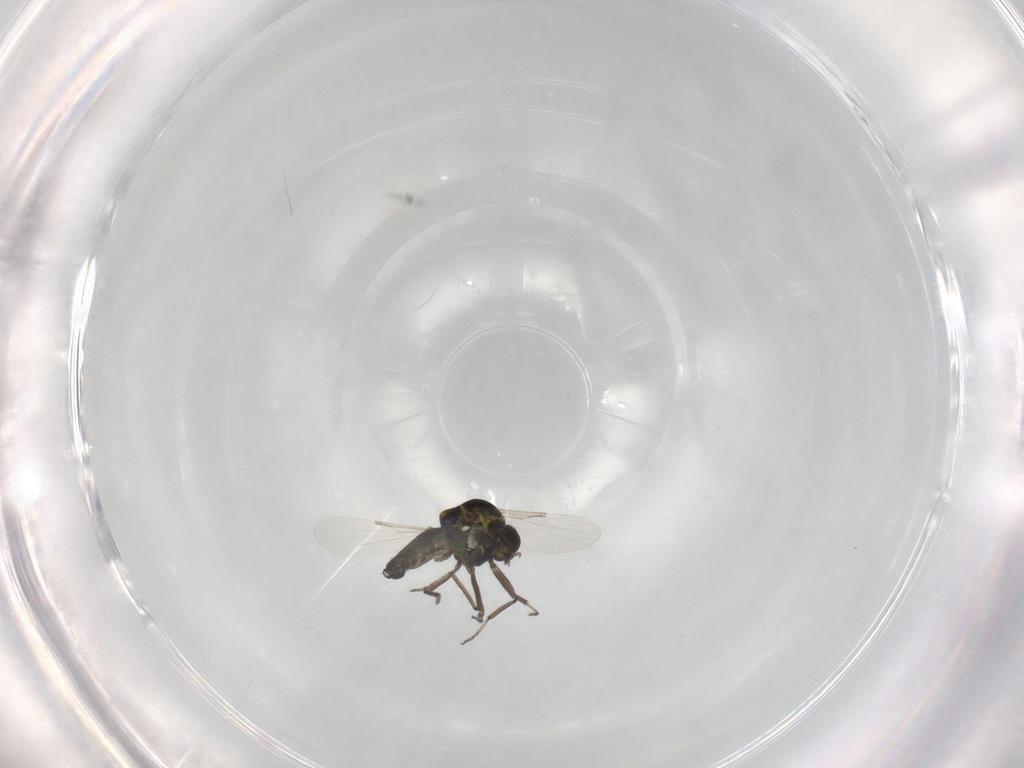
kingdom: Animalia
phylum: Arthropoda
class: Insecta
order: Diptera
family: Ceratopogonidae
